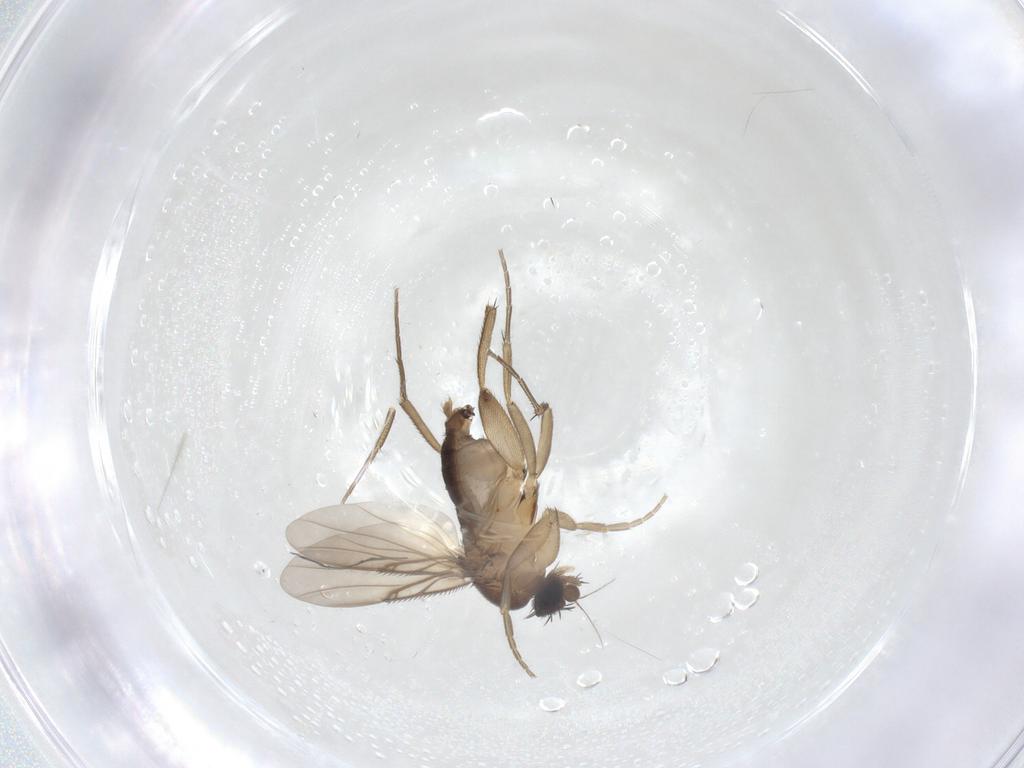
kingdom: Animalia
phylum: Arthropoda
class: Insecta
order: Diptera
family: Phoridae
